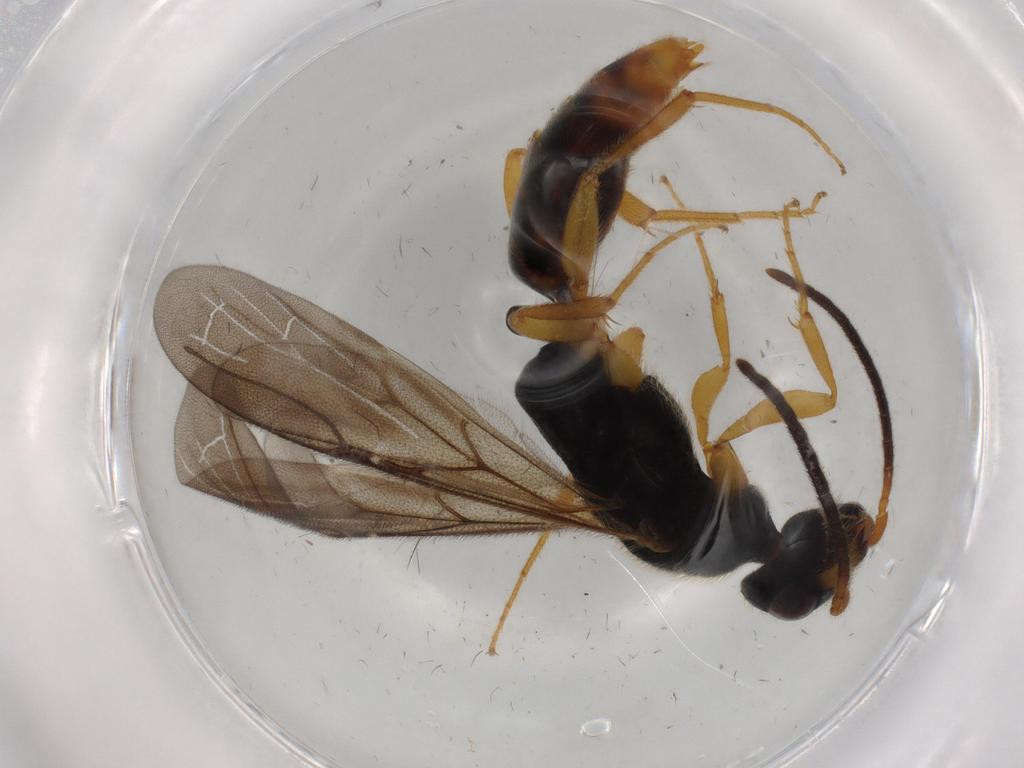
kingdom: Animalia
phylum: Arthropoda
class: Insecta
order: Hymenoptera
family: Bethylidae
